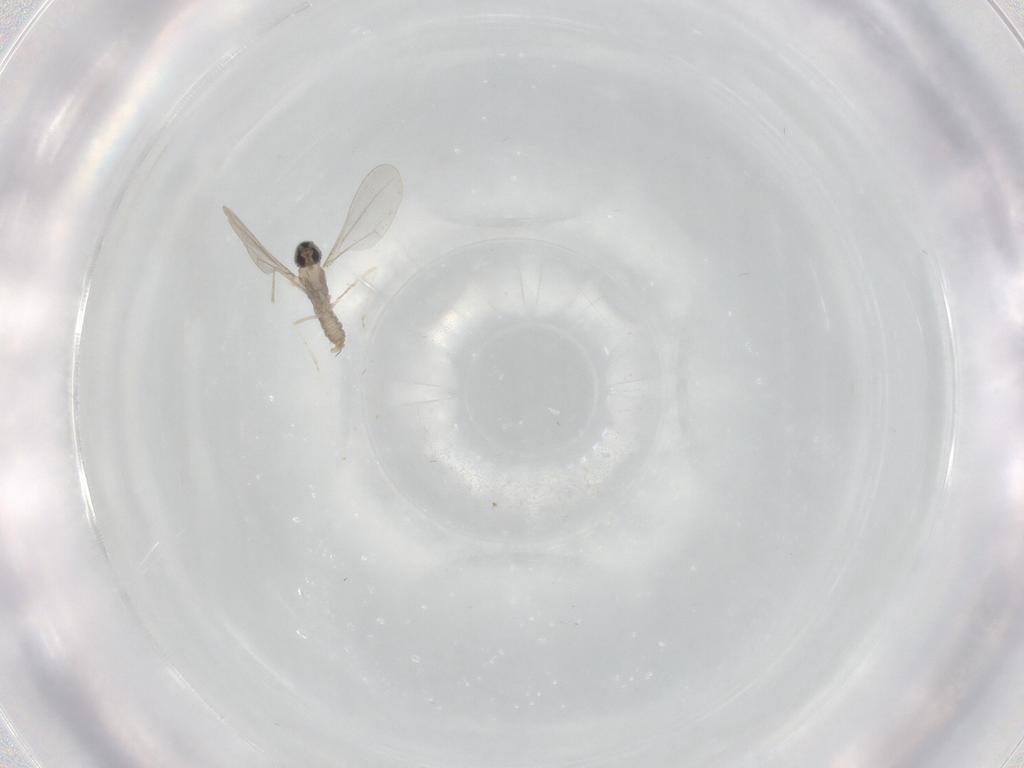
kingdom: Animalia
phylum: Arthropoda
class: Insecta
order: Diptera
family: Cecidomyiidae
